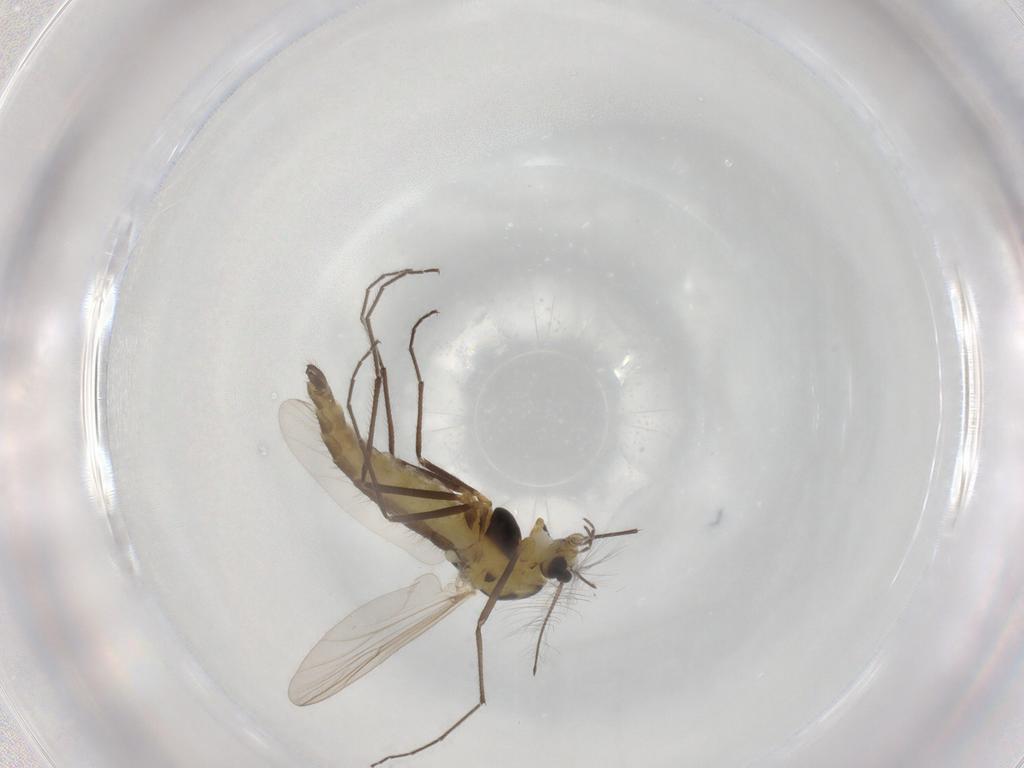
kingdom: Animalia
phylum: Arthropoda
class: Insecta
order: Diptera
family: Chironomidae
